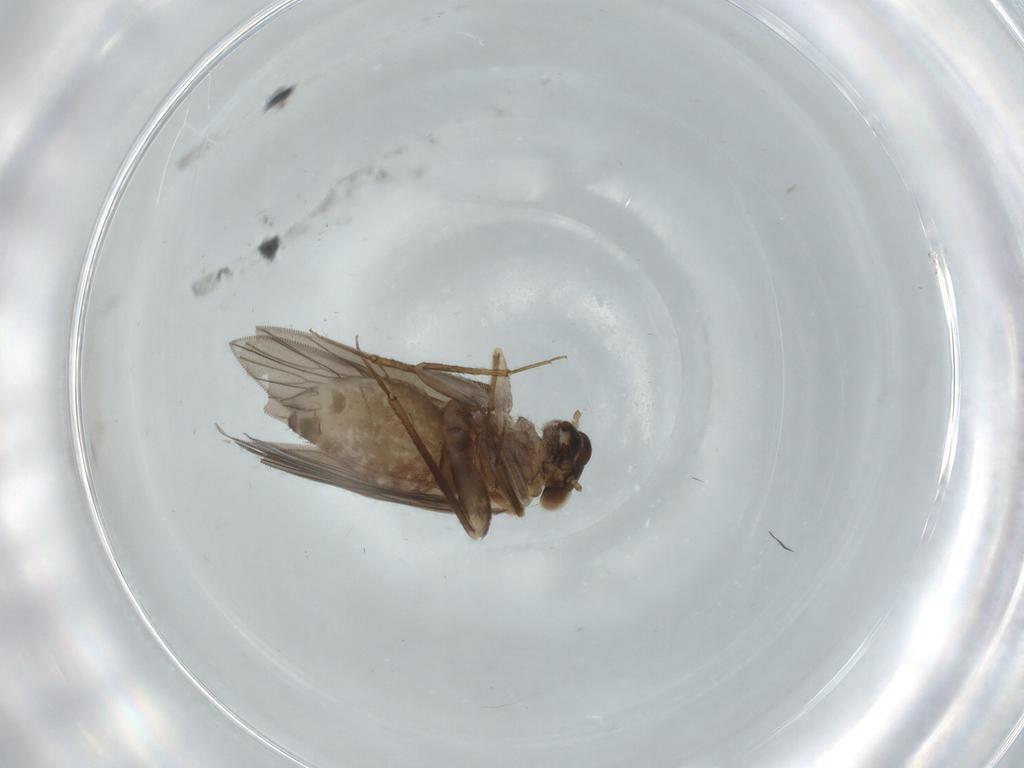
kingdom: Animalia
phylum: Arthropoda
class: Insecta
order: Psocodea
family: Lepidopsocidae
